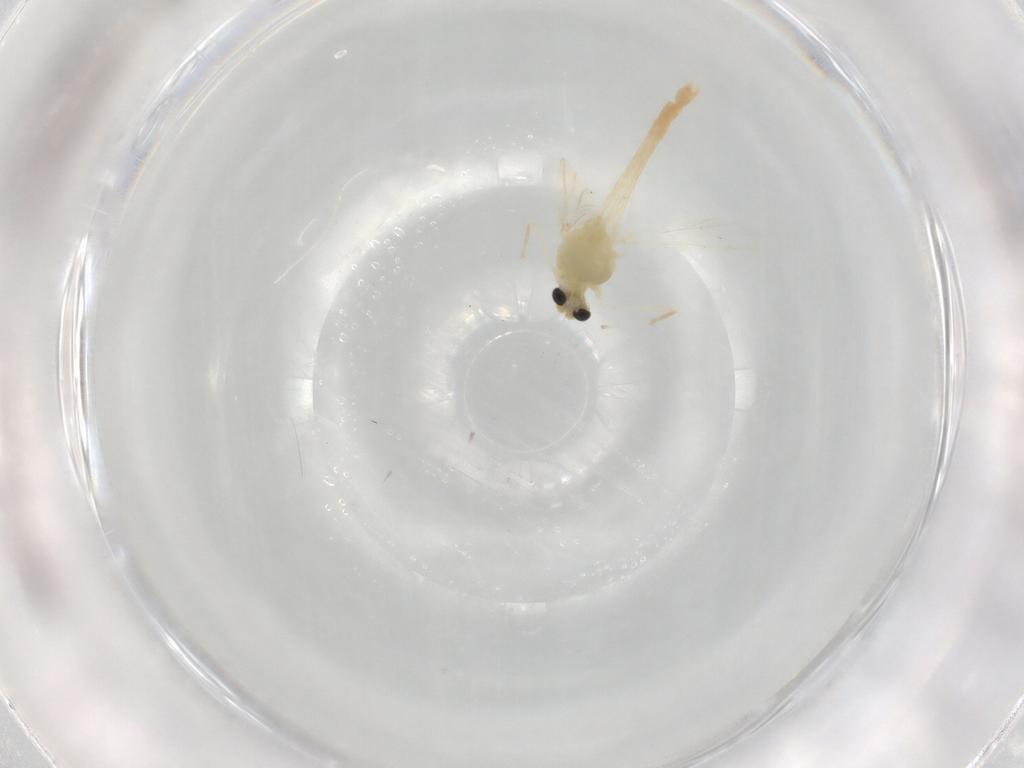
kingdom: Animalia
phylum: Arthropoda
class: Insecta
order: Diptera
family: Chironomidae
